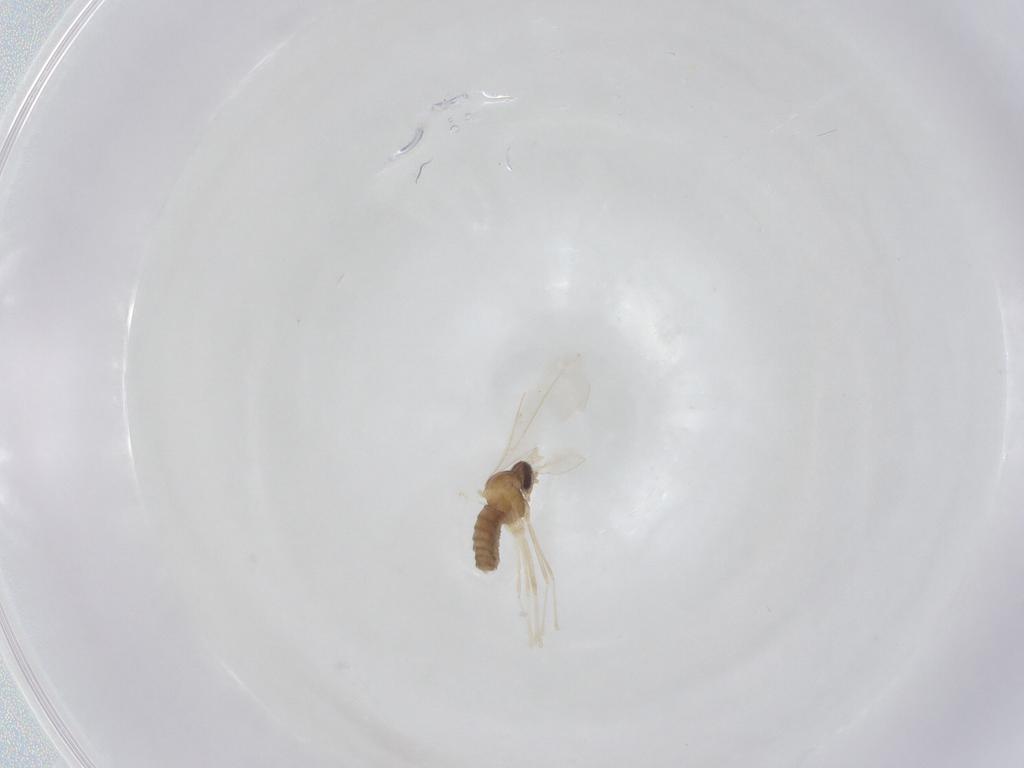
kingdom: Animalia
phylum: Arthropoda
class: Insecta
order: Diptera
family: Cecidomyiidae
